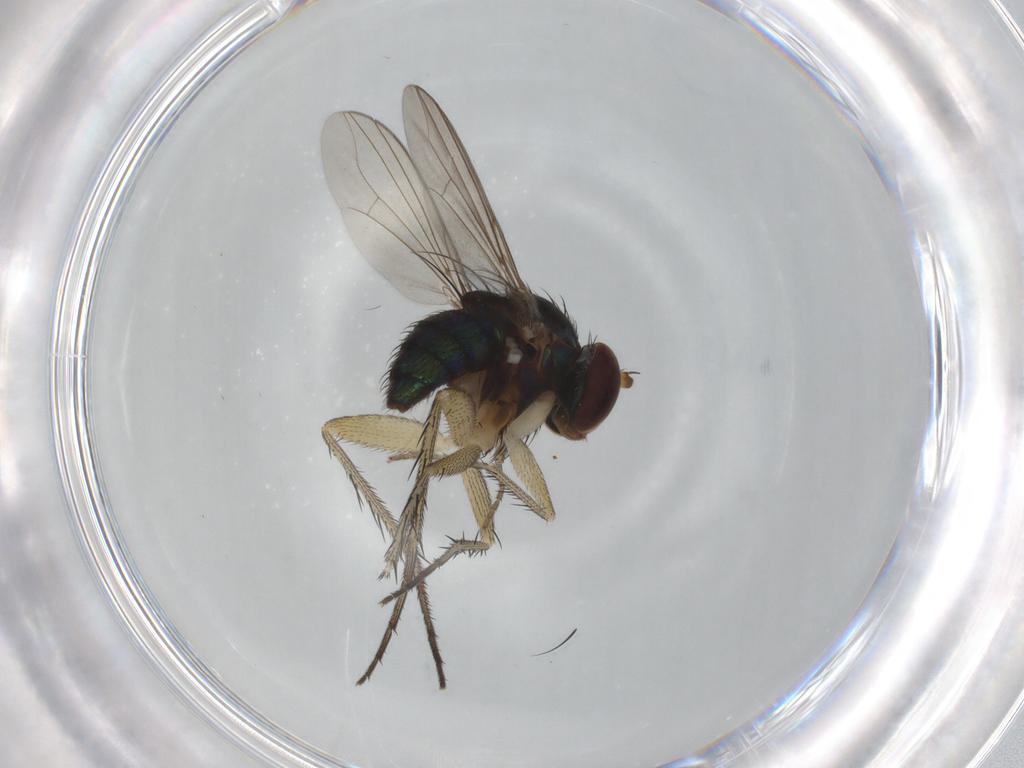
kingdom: Animalia
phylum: Arthropoda
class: Insecta
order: Diptera
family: Dolichopodidae
